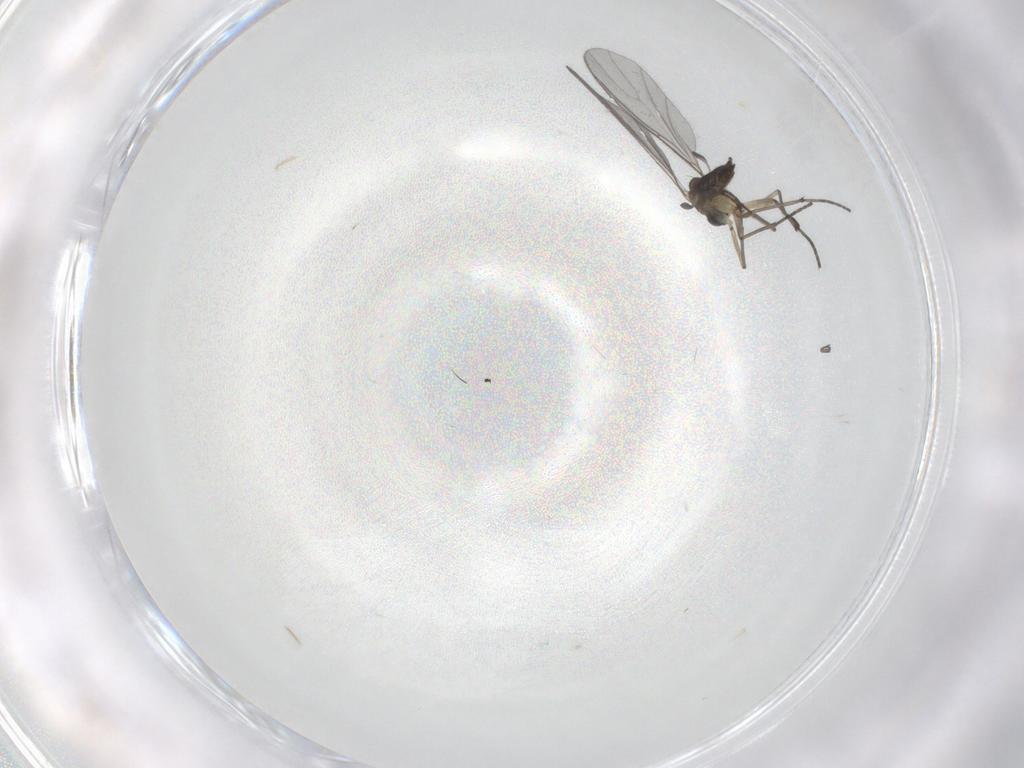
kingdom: Animalia
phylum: Arthropoda
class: Insecta
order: Diptera
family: Sciaridae
